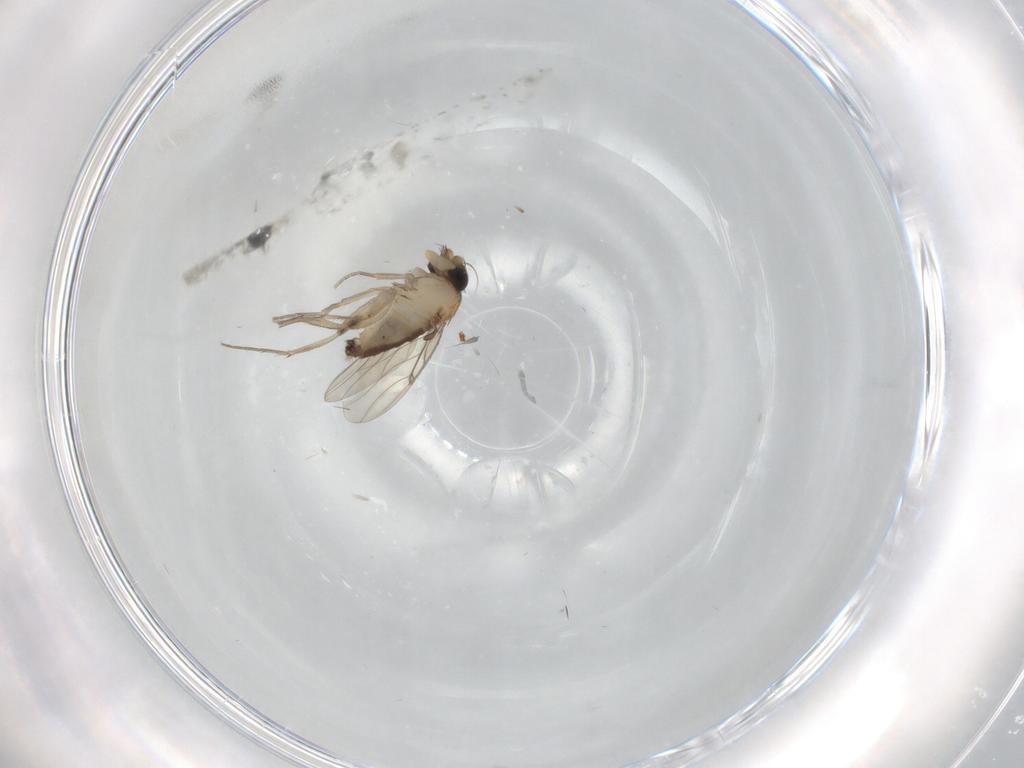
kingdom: Animalia
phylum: Arthropoda
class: Insecta
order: Diptera
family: Phoridae
